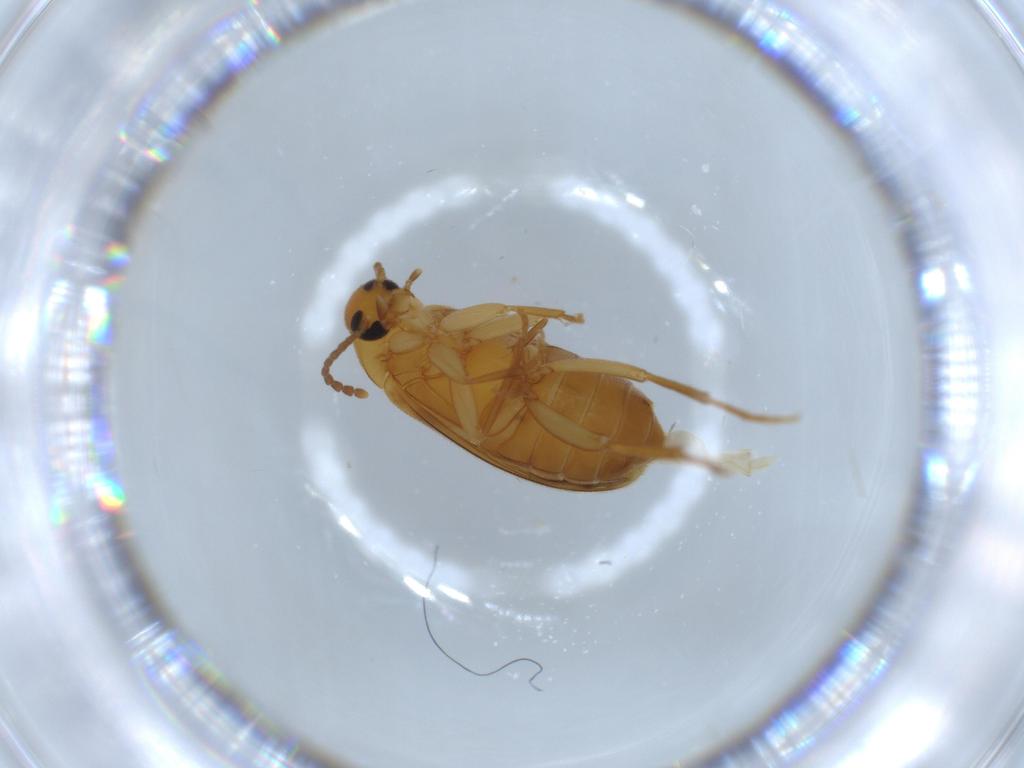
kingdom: Animalia
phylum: Arthropoda
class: Insecta
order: Coleoptera
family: Scraptiidae
